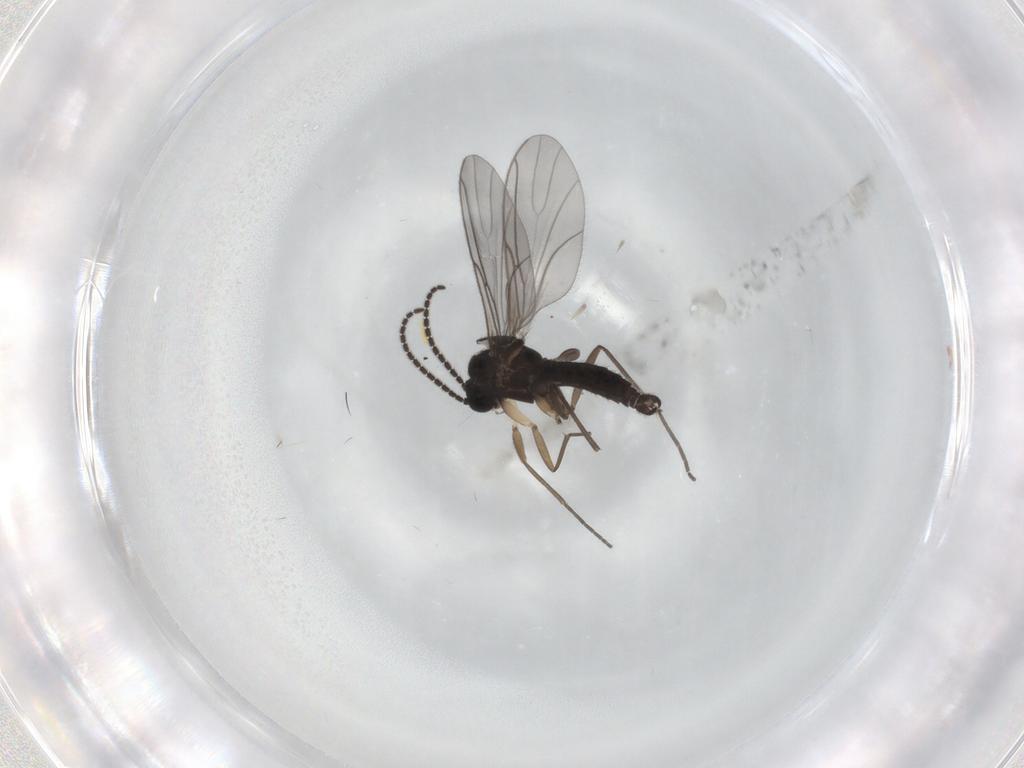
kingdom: Animalia
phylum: Arthropoda
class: Insecta
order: Diptera
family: Sciaridae
